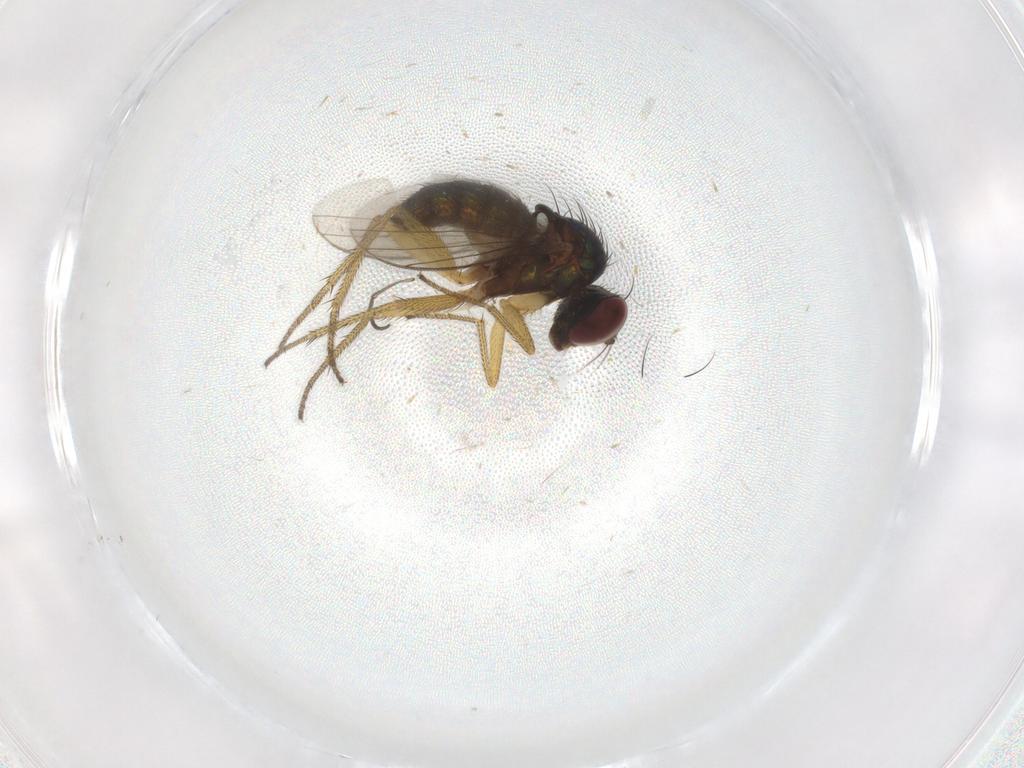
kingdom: Animalia
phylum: Arthropoda
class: Insecta
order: Diptera
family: Dolichopodidae
